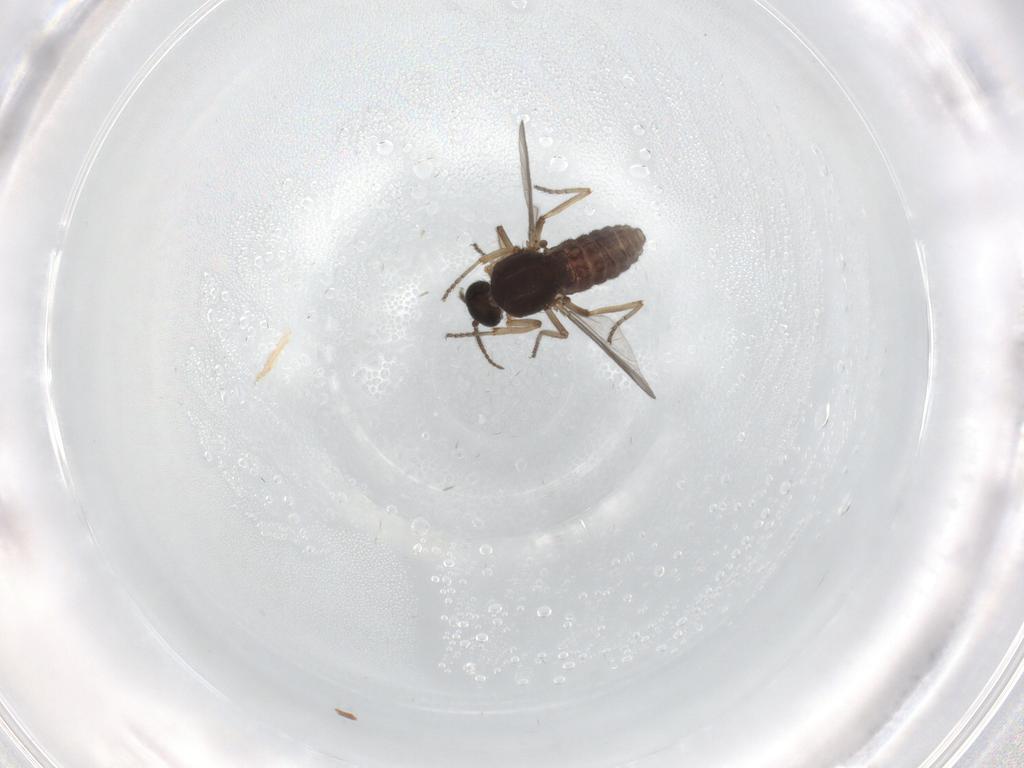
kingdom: Animalia
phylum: Arthropoda
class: Insecta
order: Diptera
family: Ceratopogonidae
